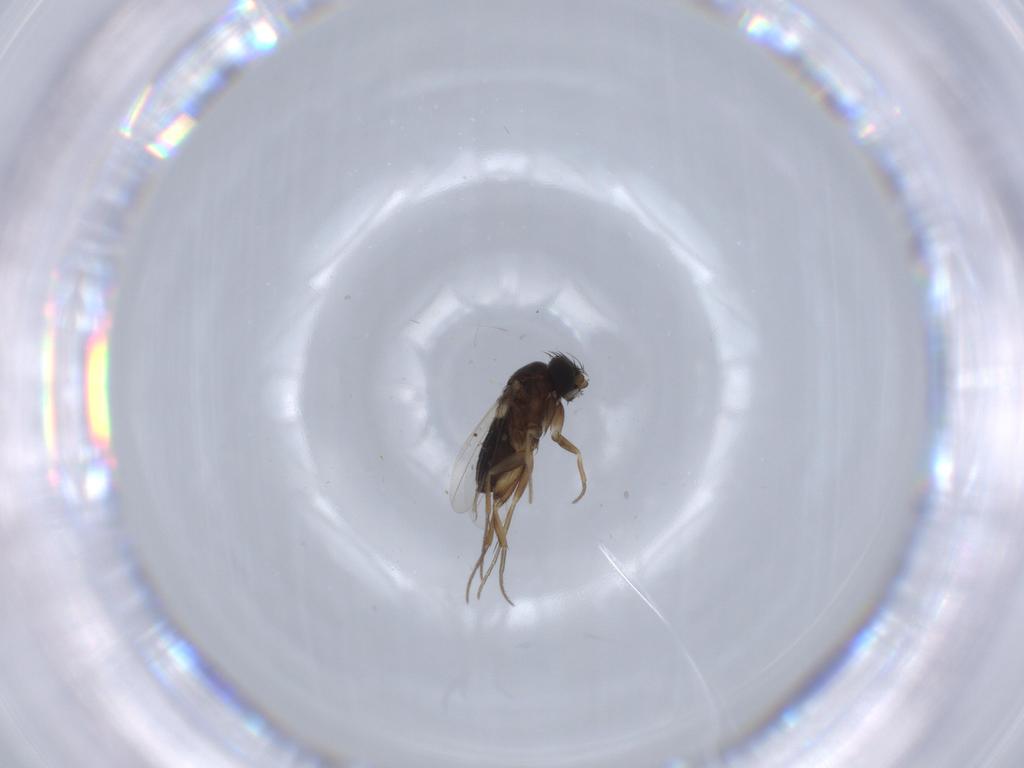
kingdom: Animalia
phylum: Arthropoda
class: Insecta
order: Diptera
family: Phoridae
